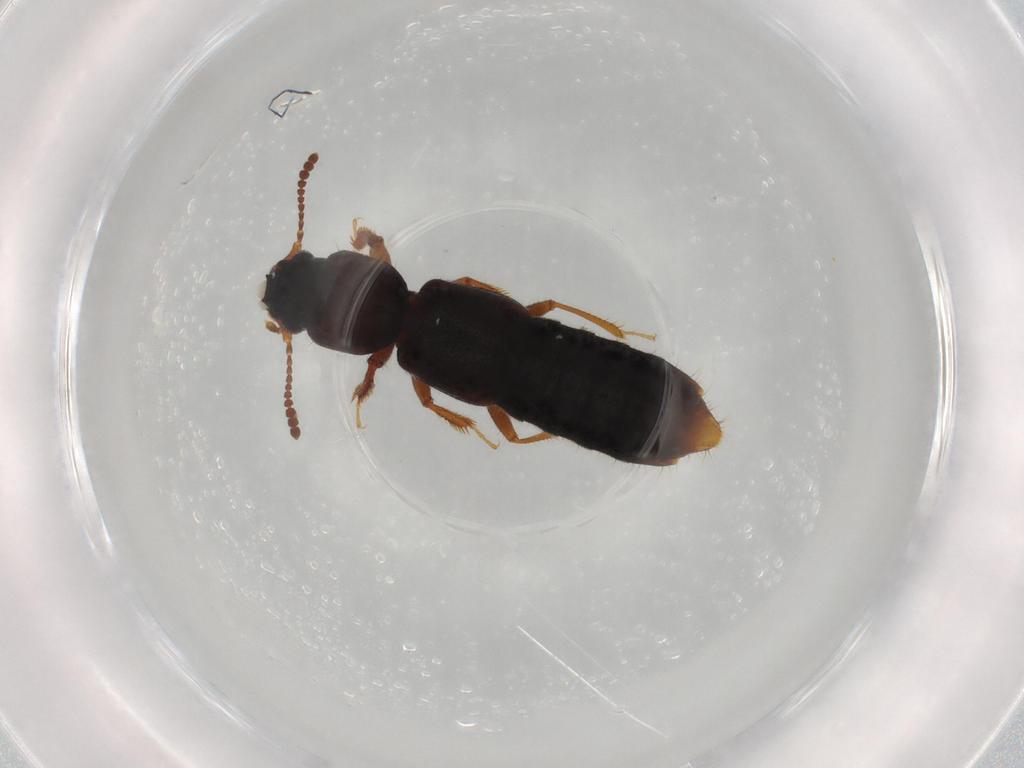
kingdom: Animalia
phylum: Arthropoda
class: Insecta
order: Coleoptera
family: Staphylinidae
